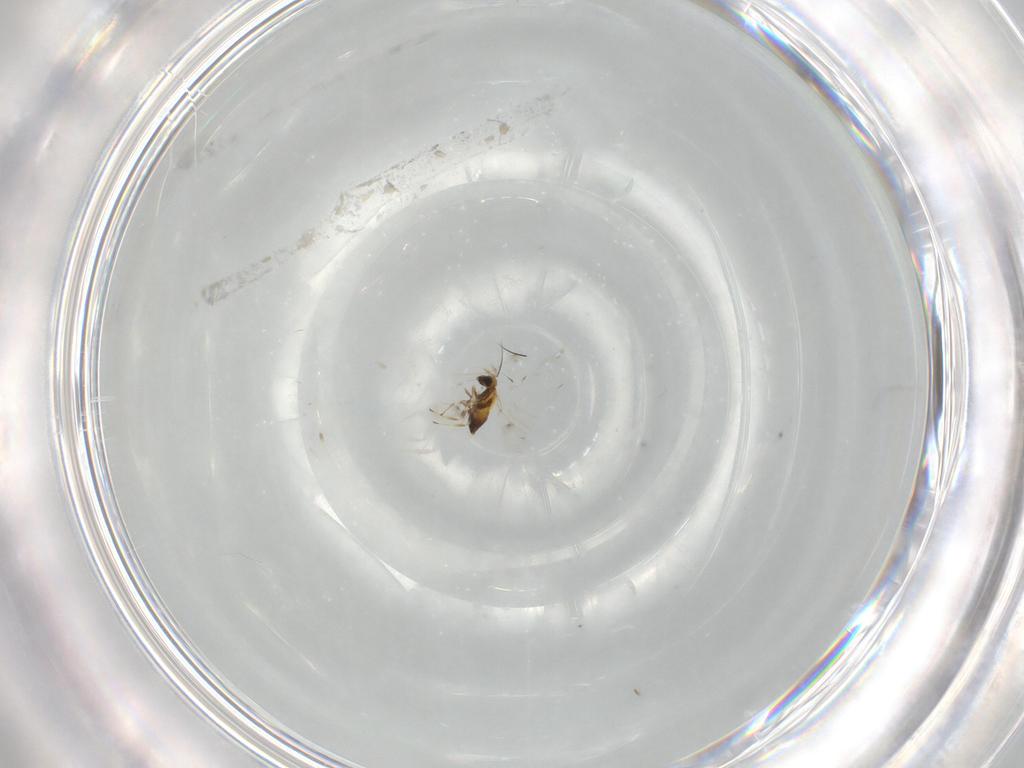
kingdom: Animalia
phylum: Arthropoda
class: Insecta
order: Hymenoptera
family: Trichogrammatidae
